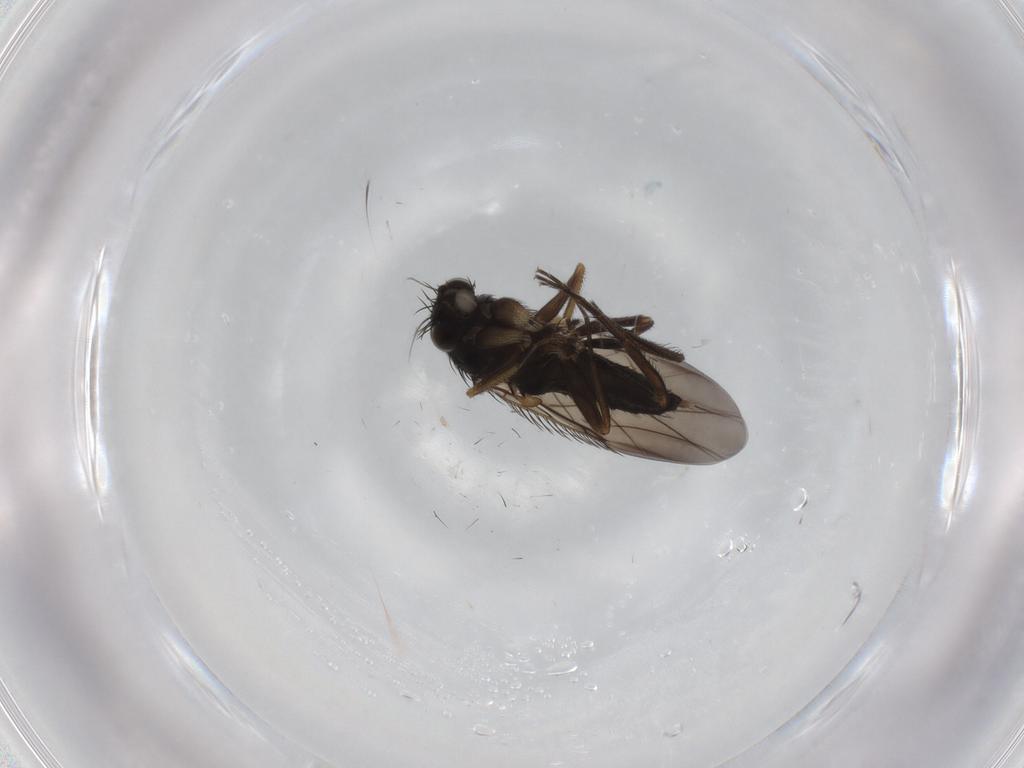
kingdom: Animalia
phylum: Arthropoda
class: Insecta
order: Diptera
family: Phoridae
